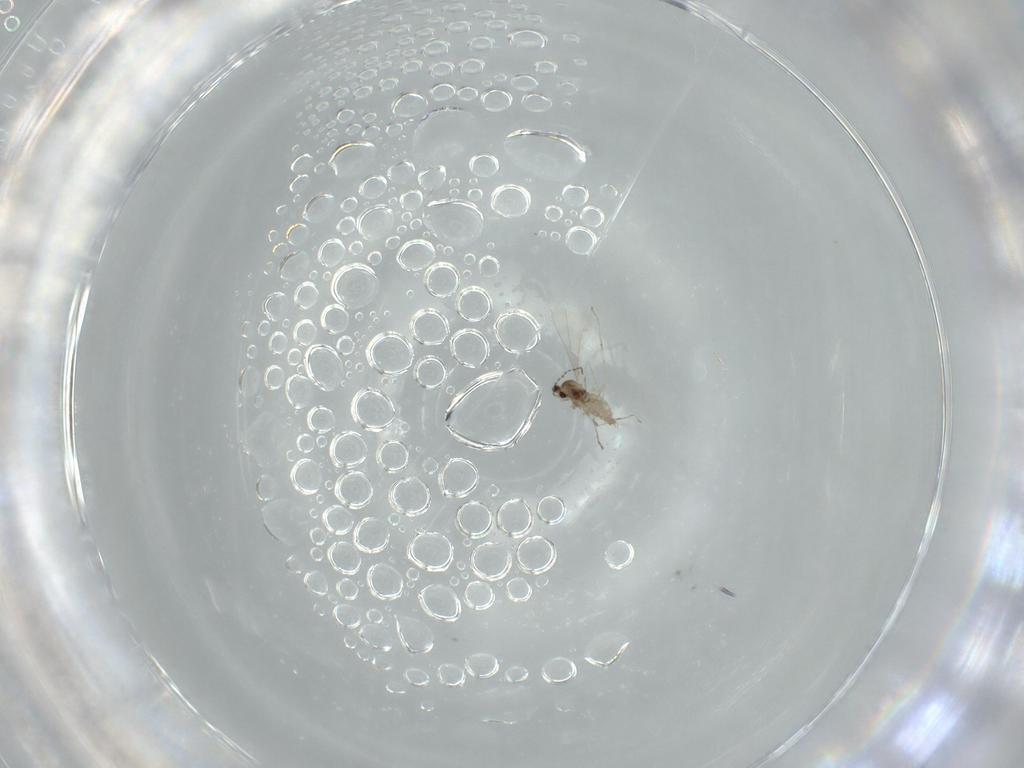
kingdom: Animalia
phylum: Arthropoda
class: Insecta
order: Diptera
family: Cecidomyiidae
